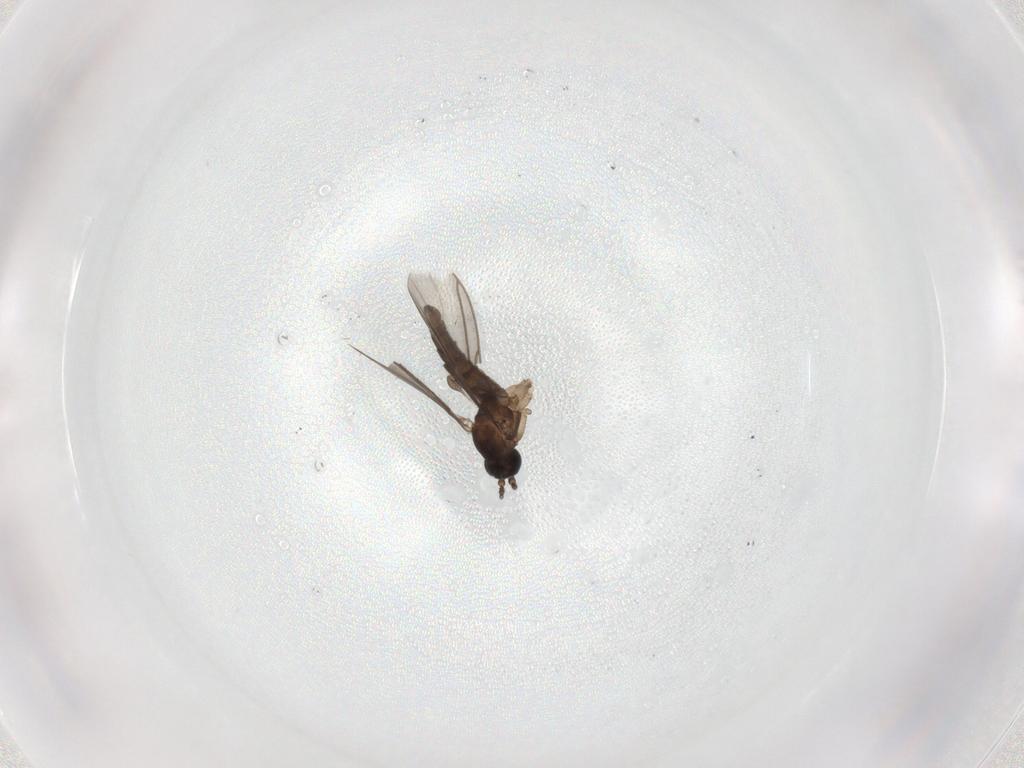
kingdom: Animalia
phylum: Arthropoda
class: Insecta
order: Diptera
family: Sciaridae
